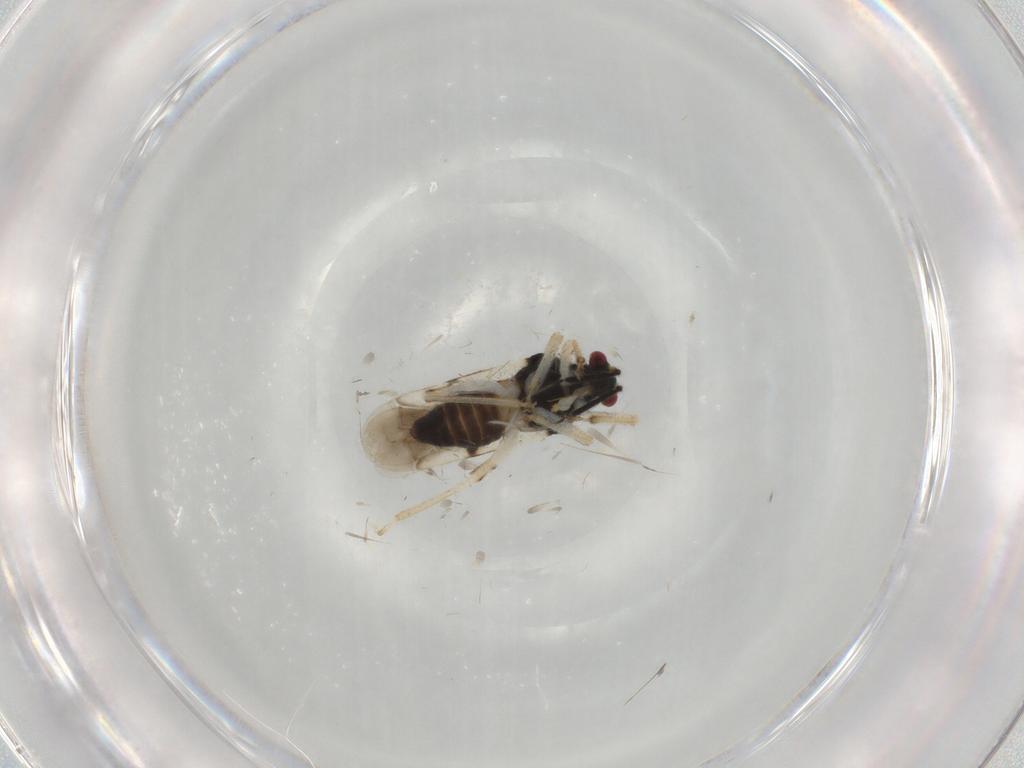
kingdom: Animalia
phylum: Arthropoda
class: Insecta
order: Hemiptera
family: Miridae
